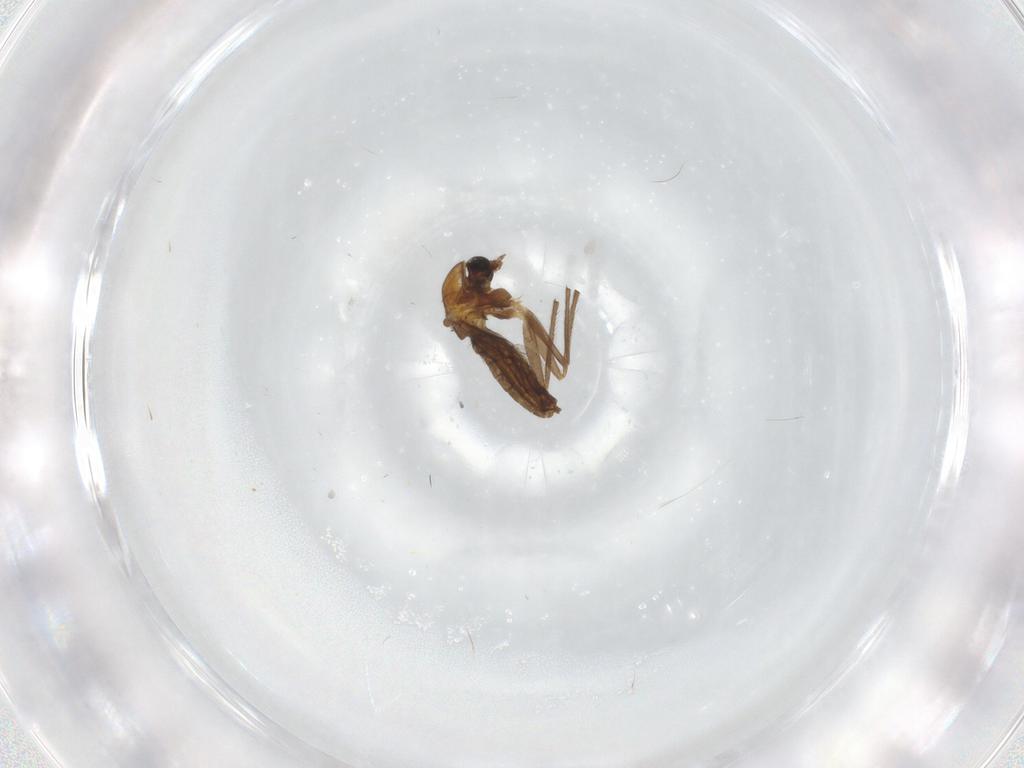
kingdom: Animalia
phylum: Arthropoda
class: Insecta
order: Diptera
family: Chironomidae
